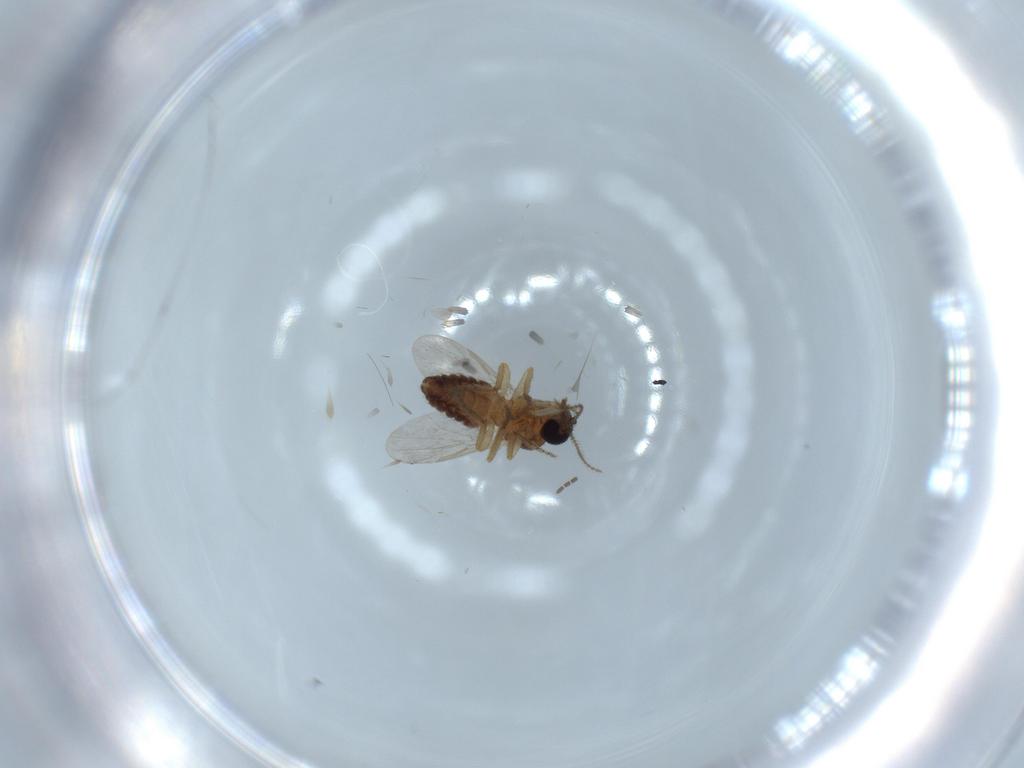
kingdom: Animalia
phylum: Arthropoda
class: Insecta
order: Diptera
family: Ceratopogonidae
